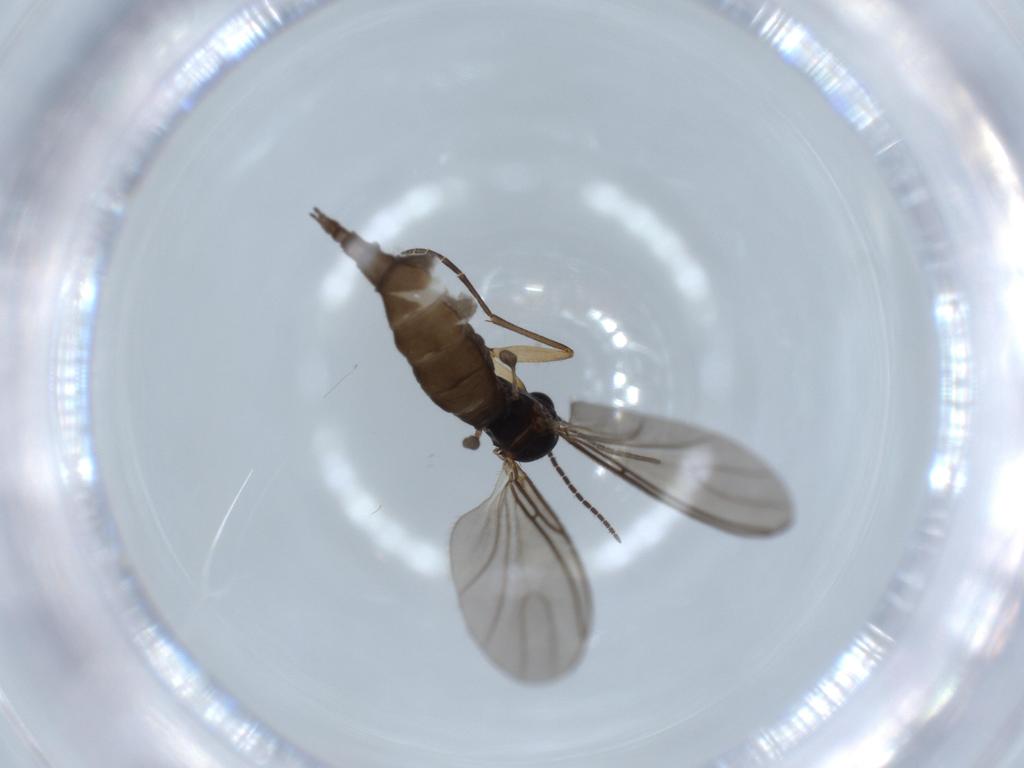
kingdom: Animalia
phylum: Arthropoda
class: Insecta
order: Diptera
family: Sciaridae
